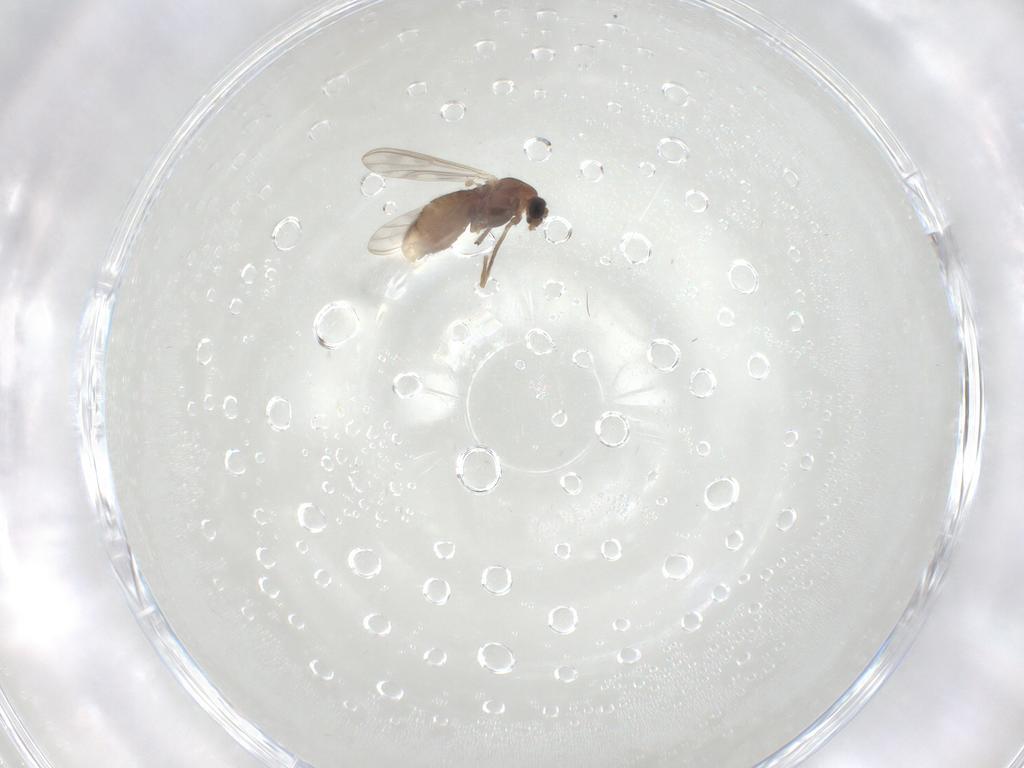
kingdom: Animalia
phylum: Arthropoda
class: Insecta
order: Diptera
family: Chironomidae
